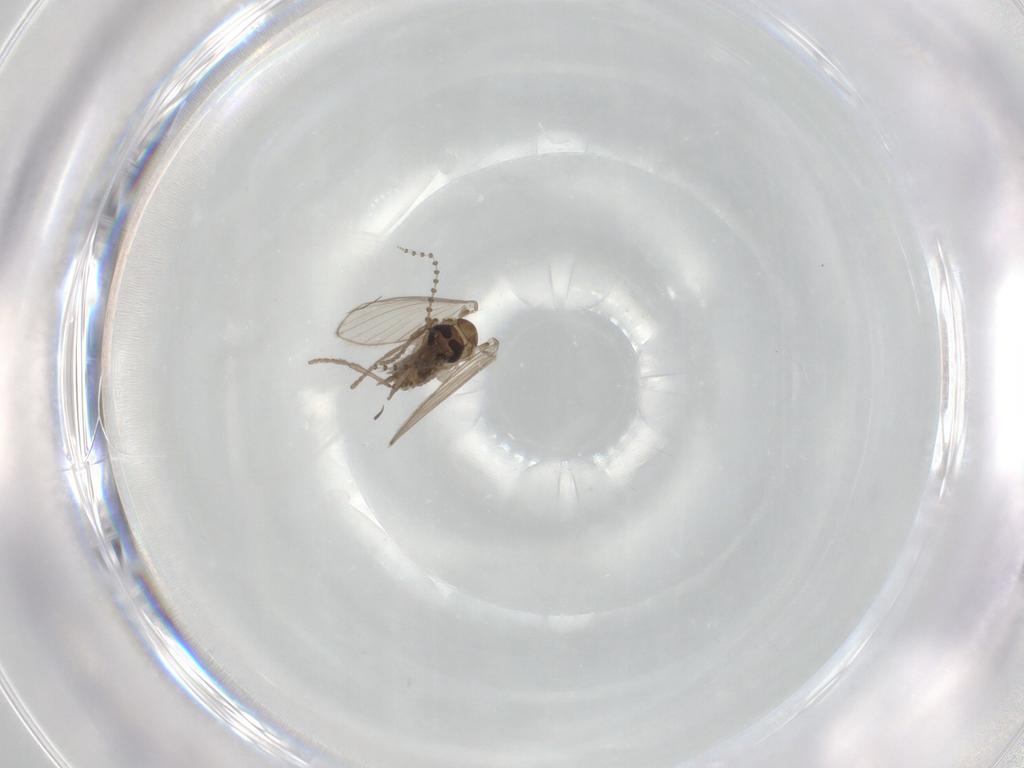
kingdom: Animalia
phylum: Arthropoda
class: Insecta
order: Diptera
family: Psychodidae
